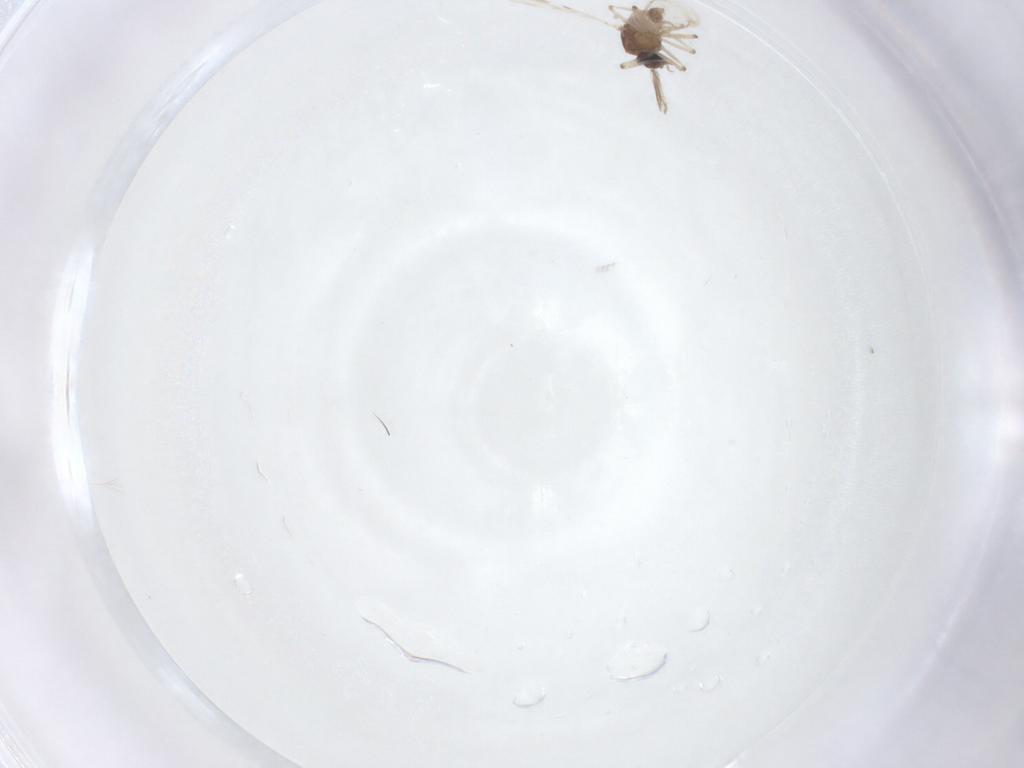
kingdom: Animalia
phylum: Arthropoda
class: Insecta
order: Diptera
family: Ceratopogonidae
